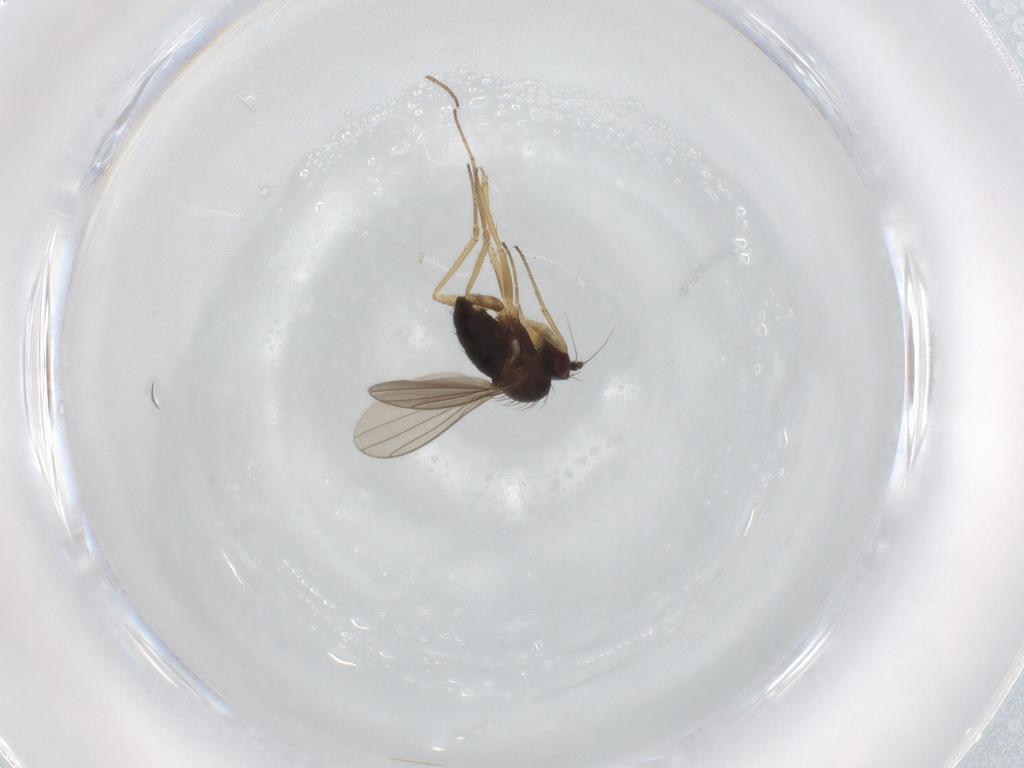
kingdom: Animalia
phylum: Arthropoda
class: Insecta
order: Diptera
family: Dolichopodidae
